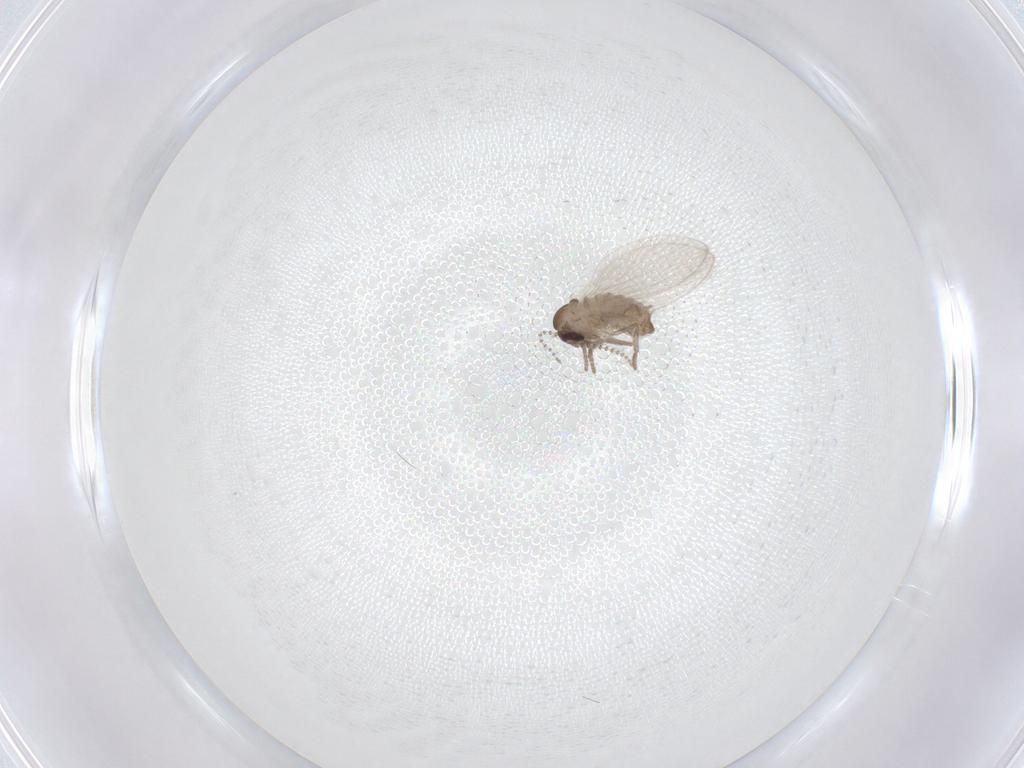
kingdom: Animalia
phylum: Arthropoda
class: Insecta
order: Diptera
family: Psychodidae
